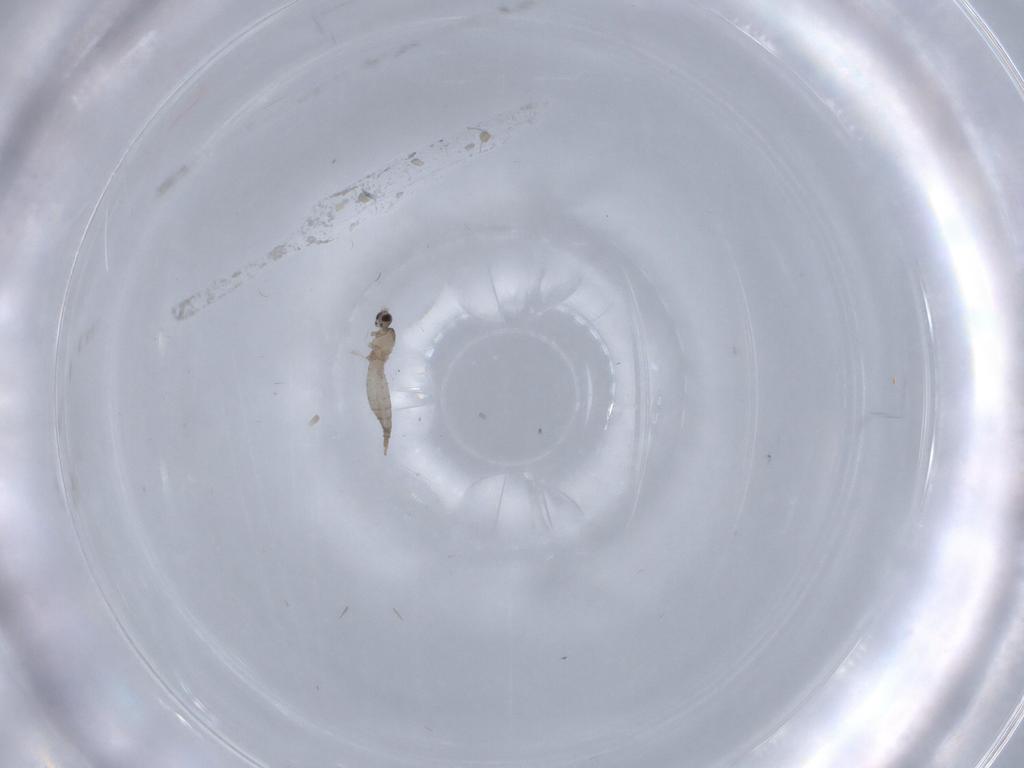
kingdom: Animalia
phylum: Arthropoda
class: Insecta
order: Diptera
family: Cecidomyiidae
